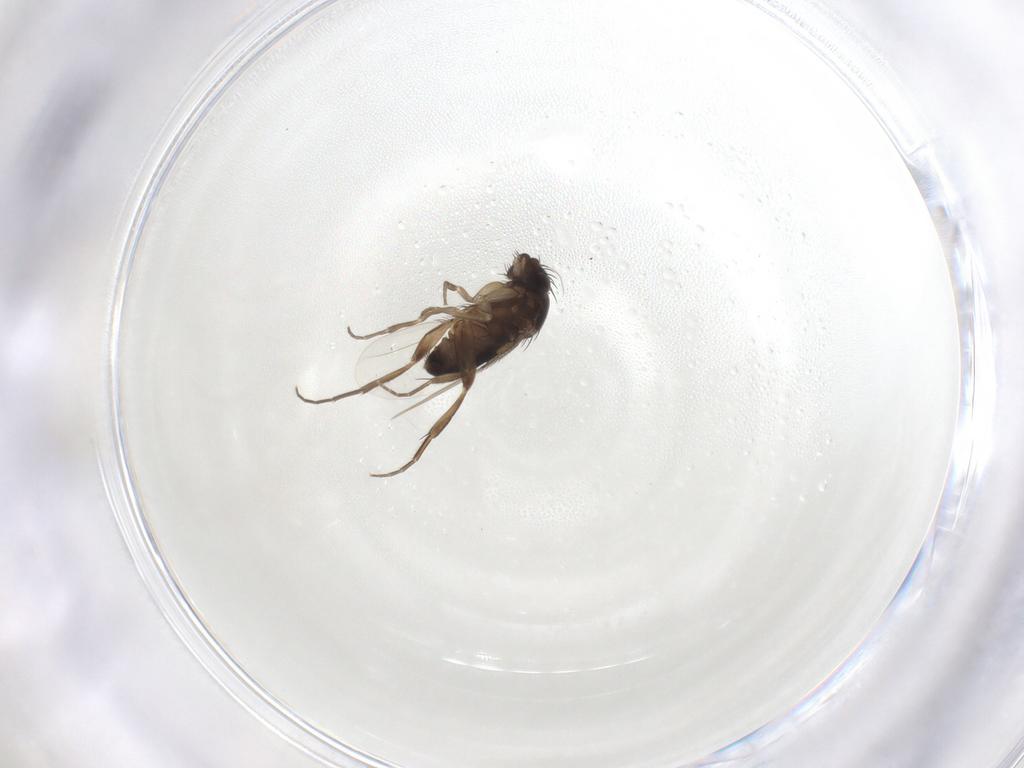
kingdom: Animalia
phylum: Arthropoda
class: Insecta
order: Diptera
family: Phoridae
